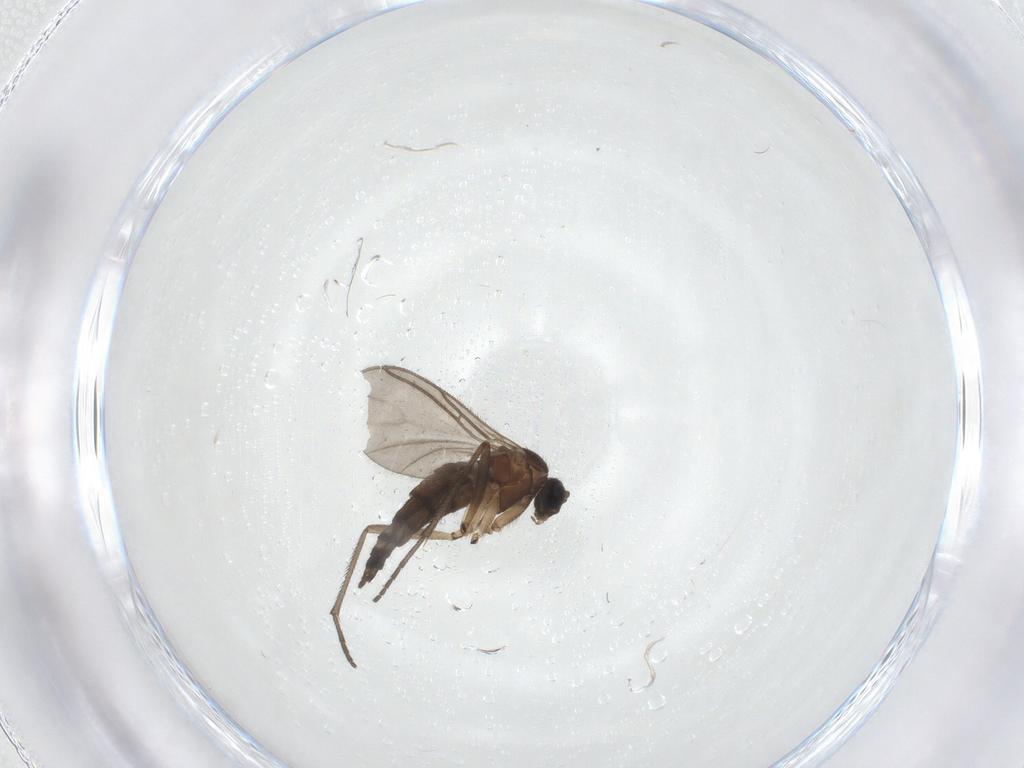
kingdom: Animalia
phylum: Arthropoda
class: Insecta
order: Diptera
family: Sciaridae
